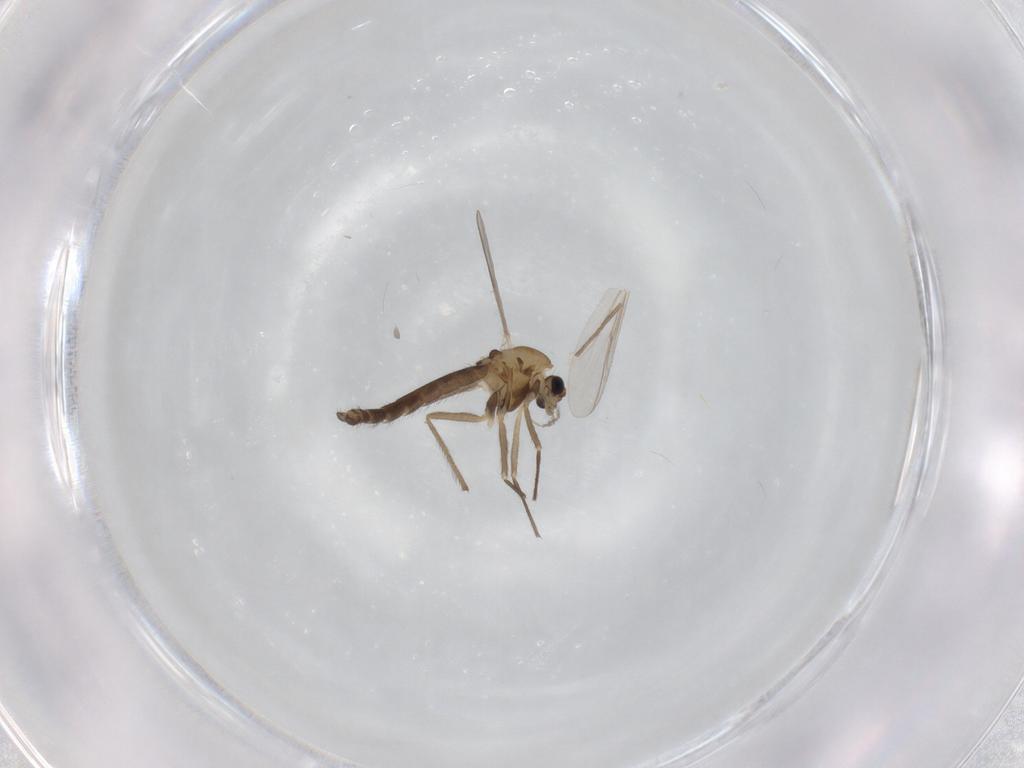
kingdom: Animalia
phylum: Arthropoda
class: Insecta
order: Diptera
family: Chironomidae
